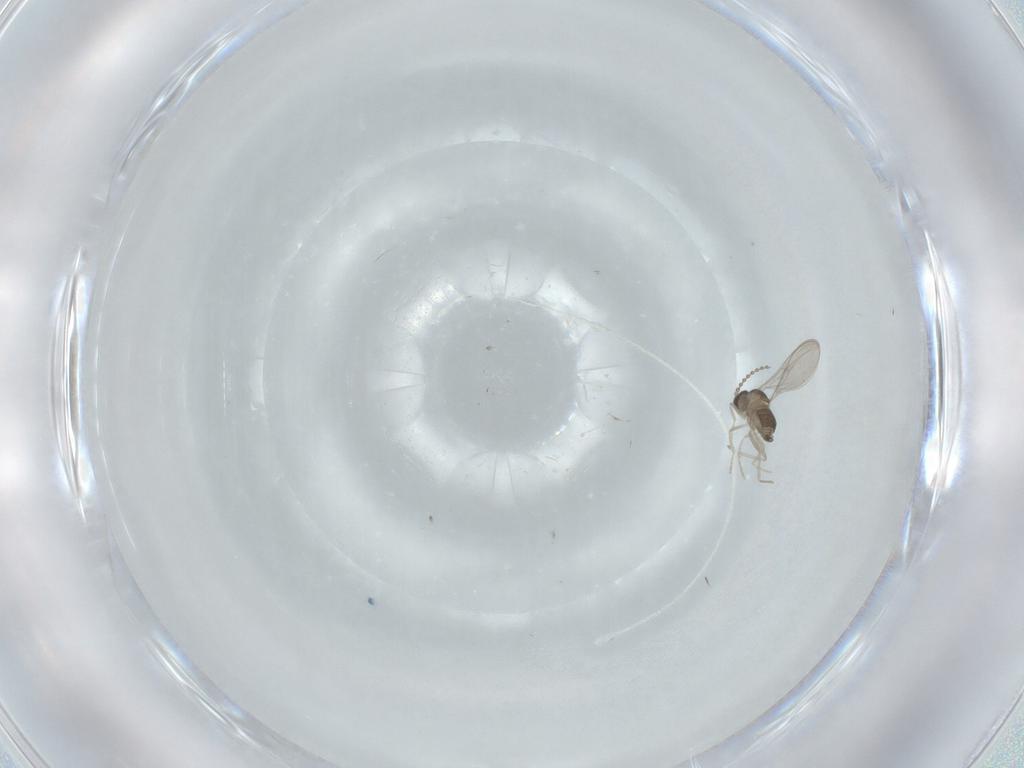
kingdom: Animalia
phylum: Arthropoda
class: Insecta
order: Diptera
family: Cecidomyiidae
